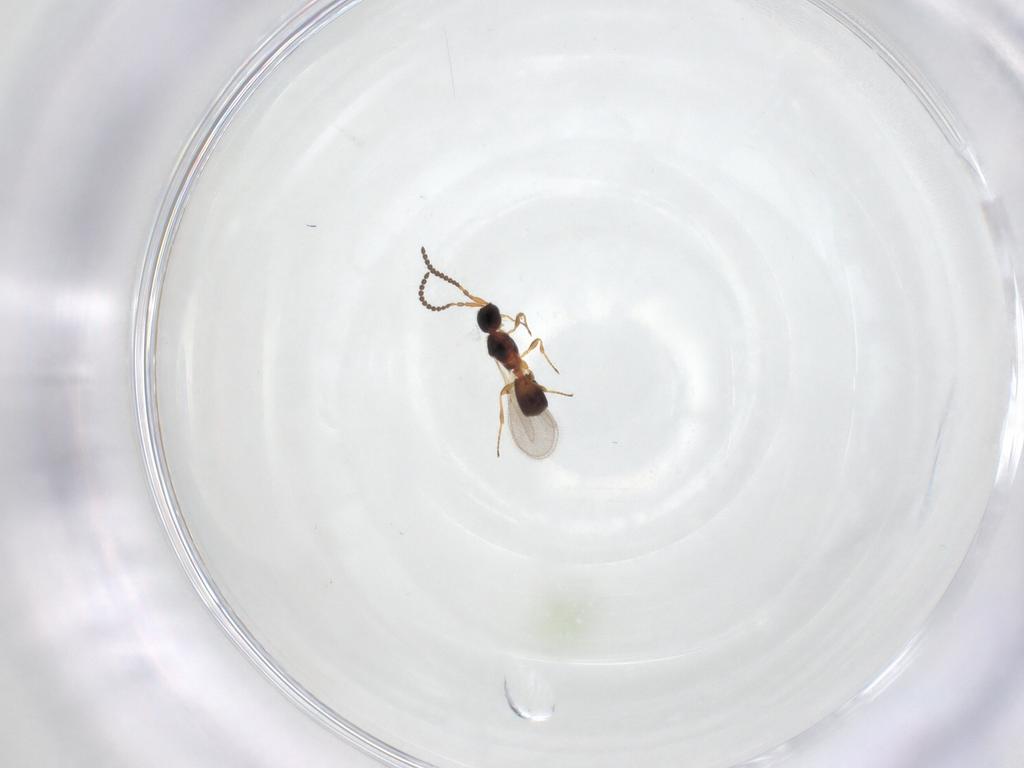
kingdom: Animalia
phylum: Arthropoda
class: Insecta
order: Hymenoptera
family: Diapriidae
